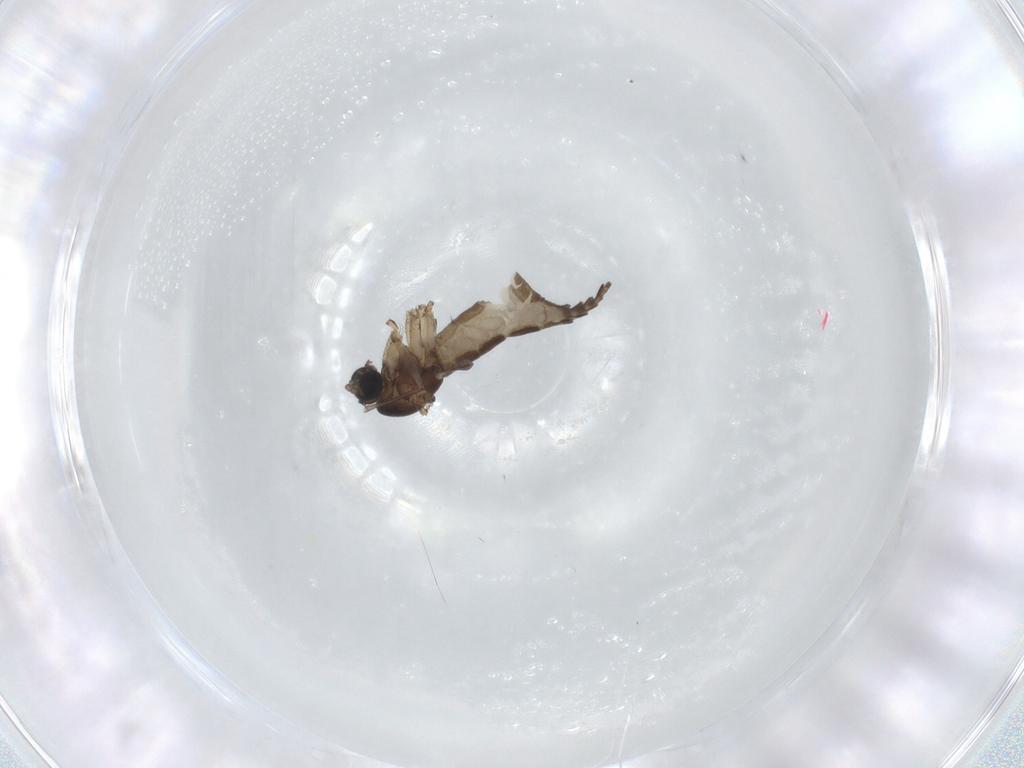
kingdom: Animalia
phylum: Arthropoda
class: Insecta
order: Diptera
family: Sciaridae
